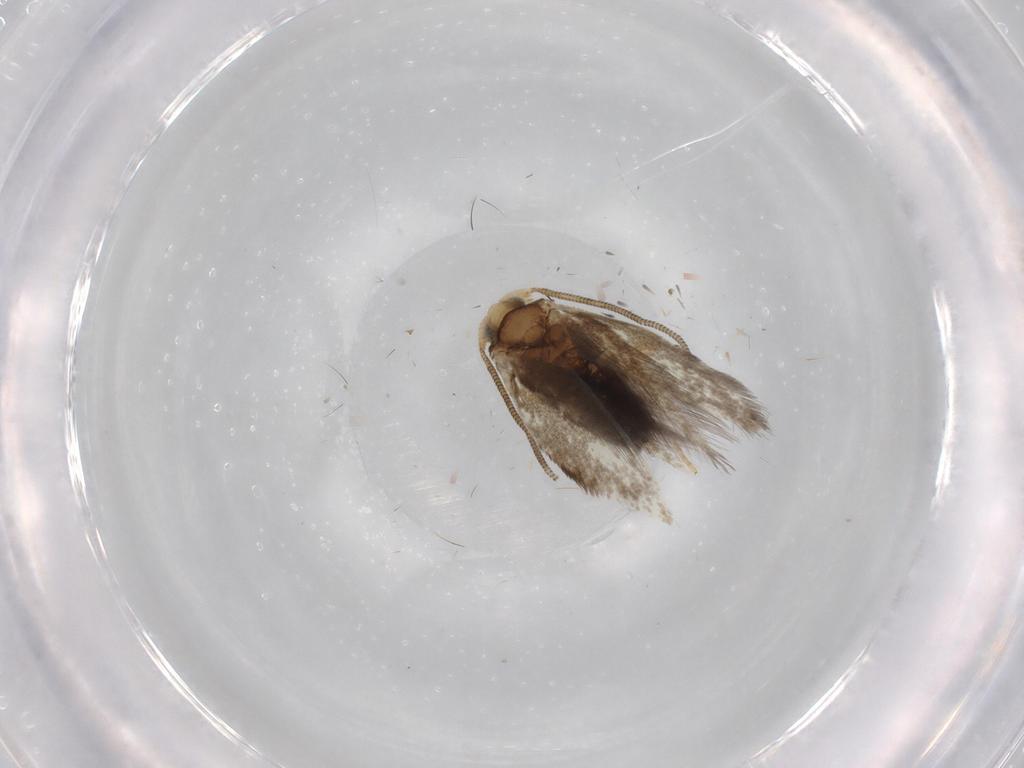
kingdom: Animalia
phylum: Arthropoda
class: Insecta
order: Lepidoptera
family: Nepticulidae
